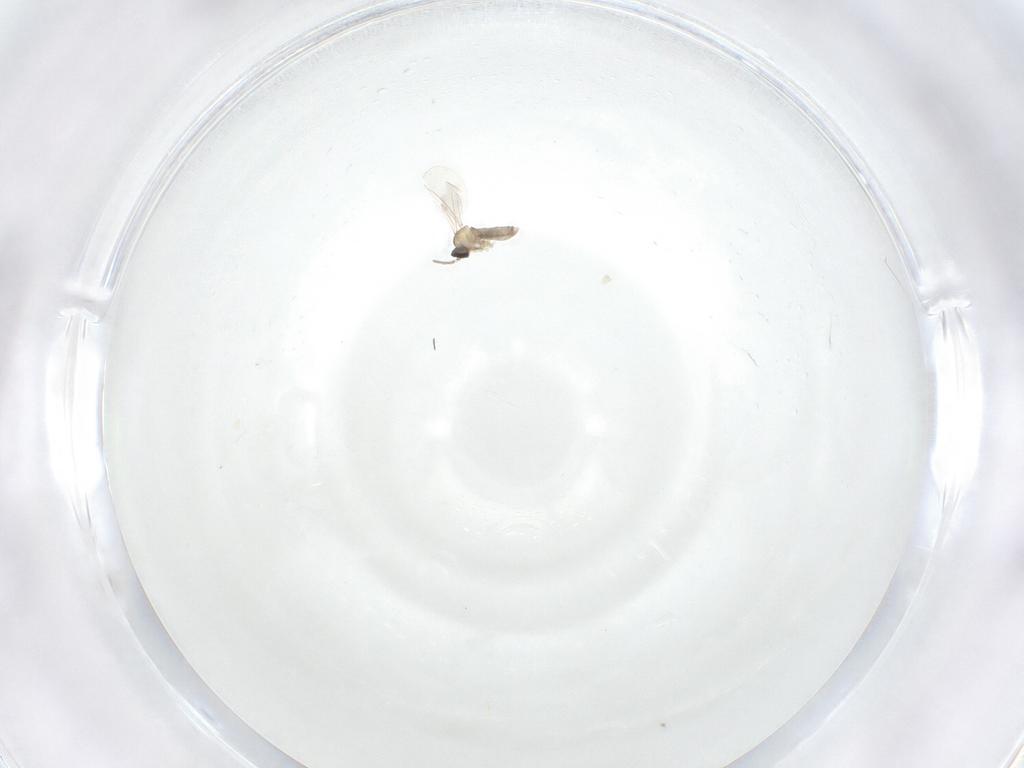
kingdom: Animalia
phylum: Arthropoda
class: Insecta
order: Diptera
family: Cecidomyiidae
